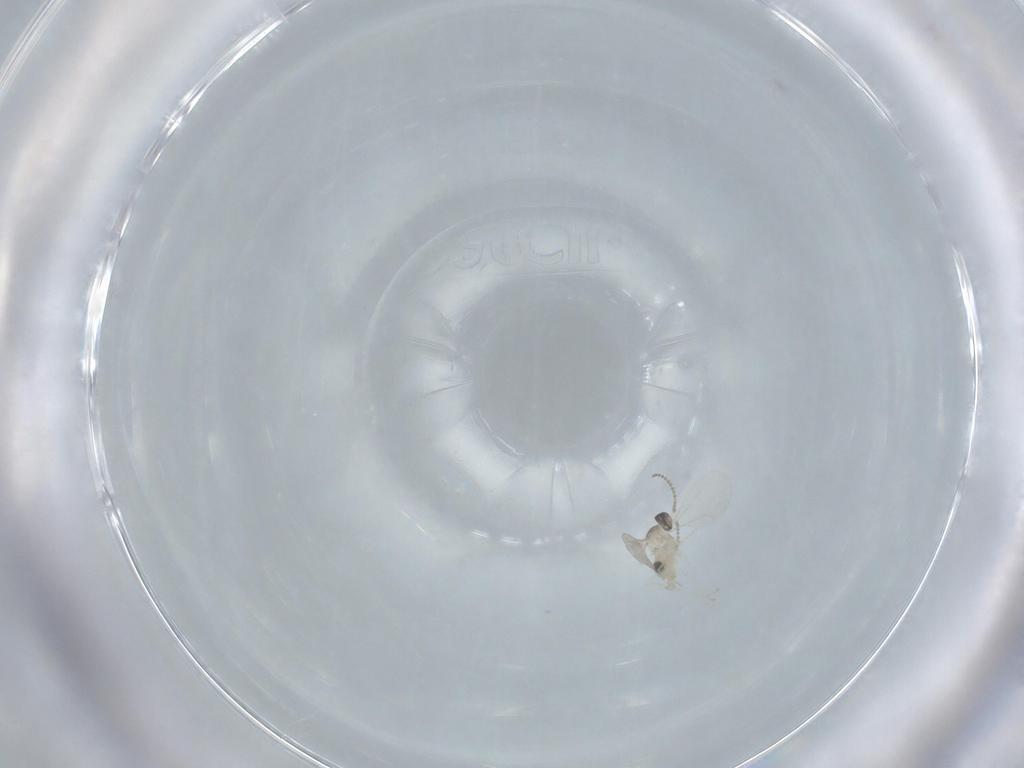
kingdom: Animalia
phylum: Arthropoda
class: Insecta
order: Diptera
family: Cecidomyiidae
